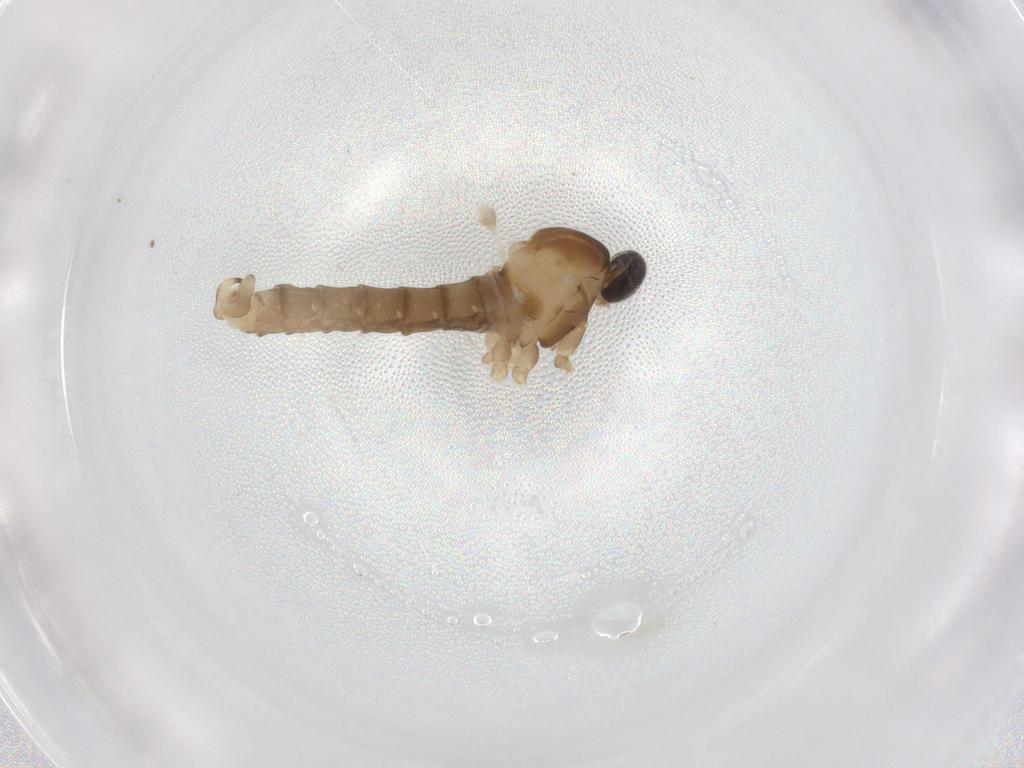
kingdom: Animalia
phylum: Arthropoda
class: Insecta
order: Diptera
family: Cecidomyiidae
